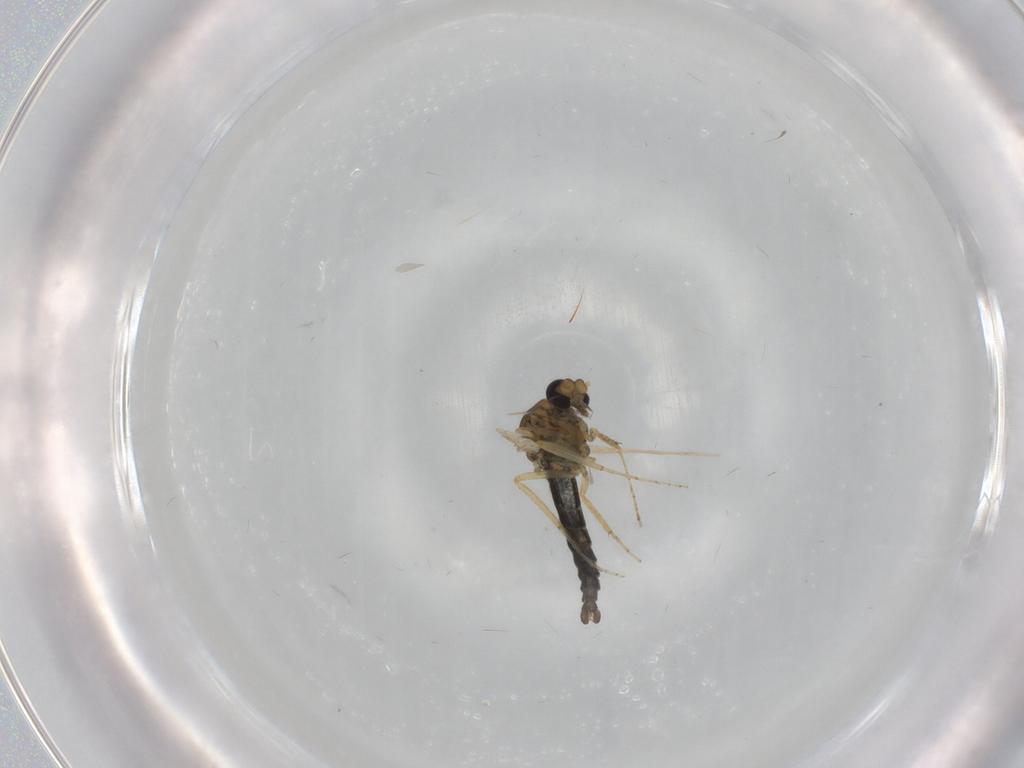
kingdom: Animalia
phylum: Arthropoda
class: Insecta
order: Diptera
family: Ceratopogonidae
